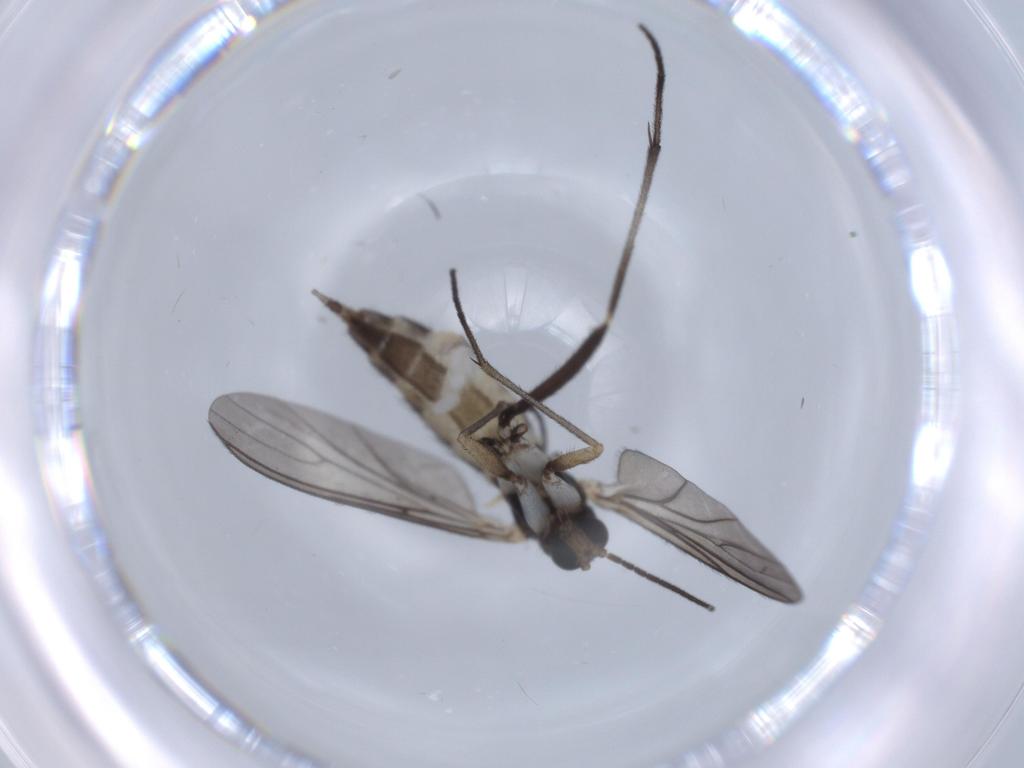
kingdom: Animalia
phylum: Arthropoda
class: Insecta
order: Diptera
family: Sciaridae
